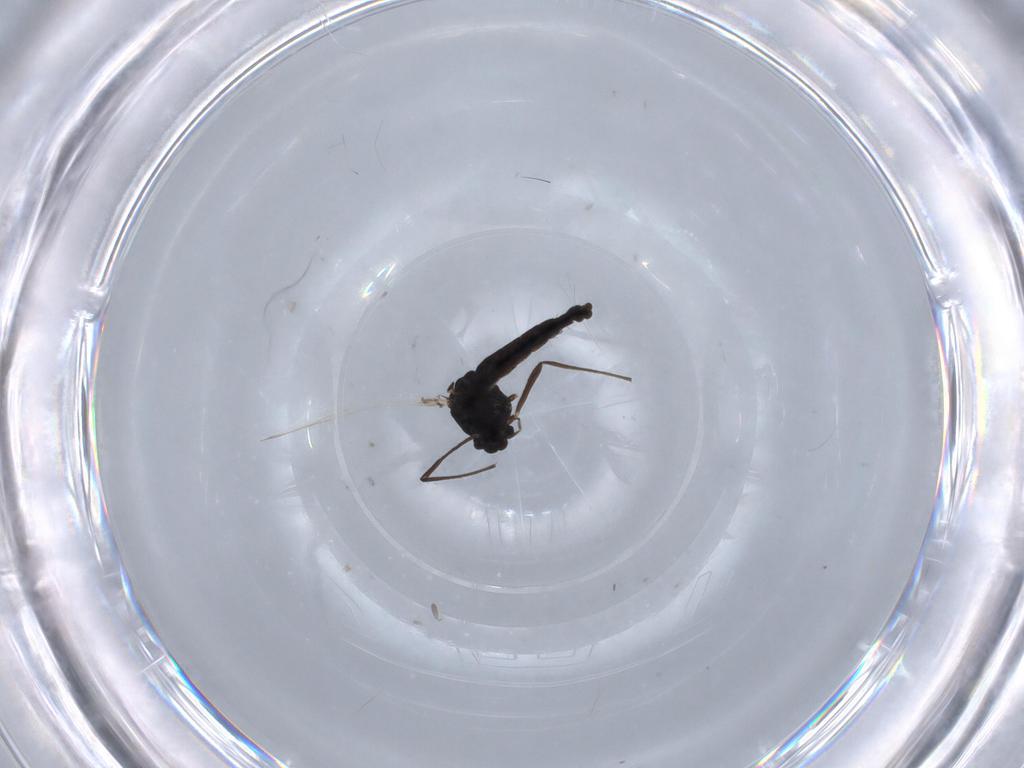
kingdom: Animalia
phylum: Arthropoda
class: Insecta
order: Diptera
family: Chironomidae
